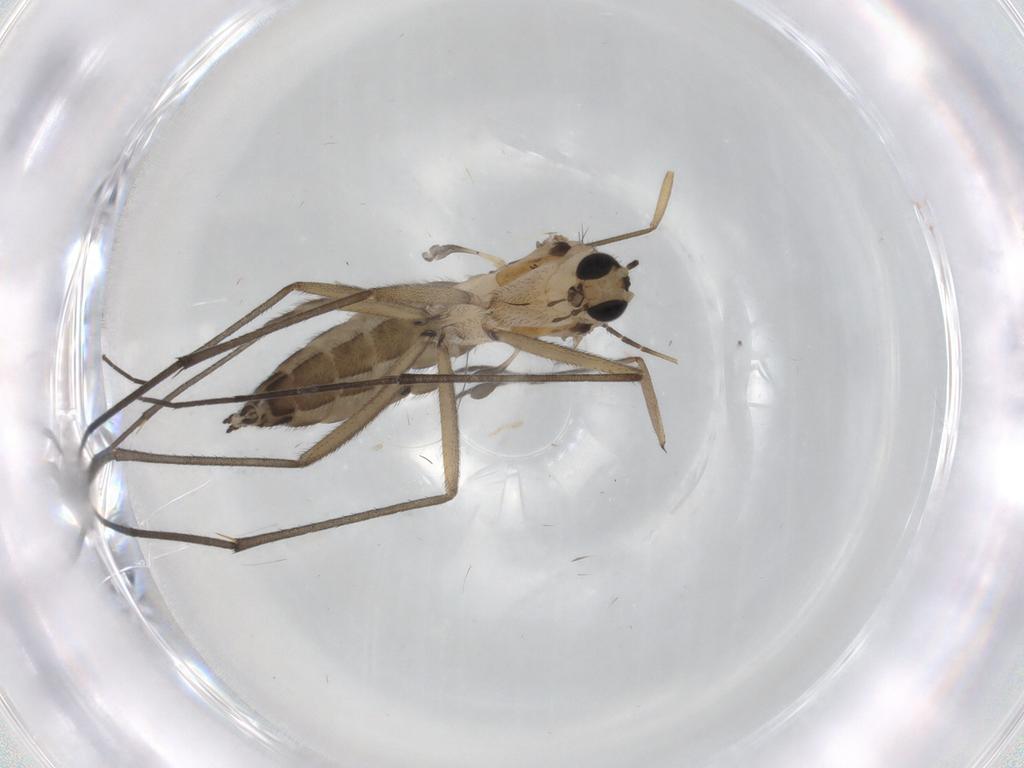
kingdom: Animalia
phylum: Arthropoda
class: Insecta
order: Diptera
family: Sciaridae
